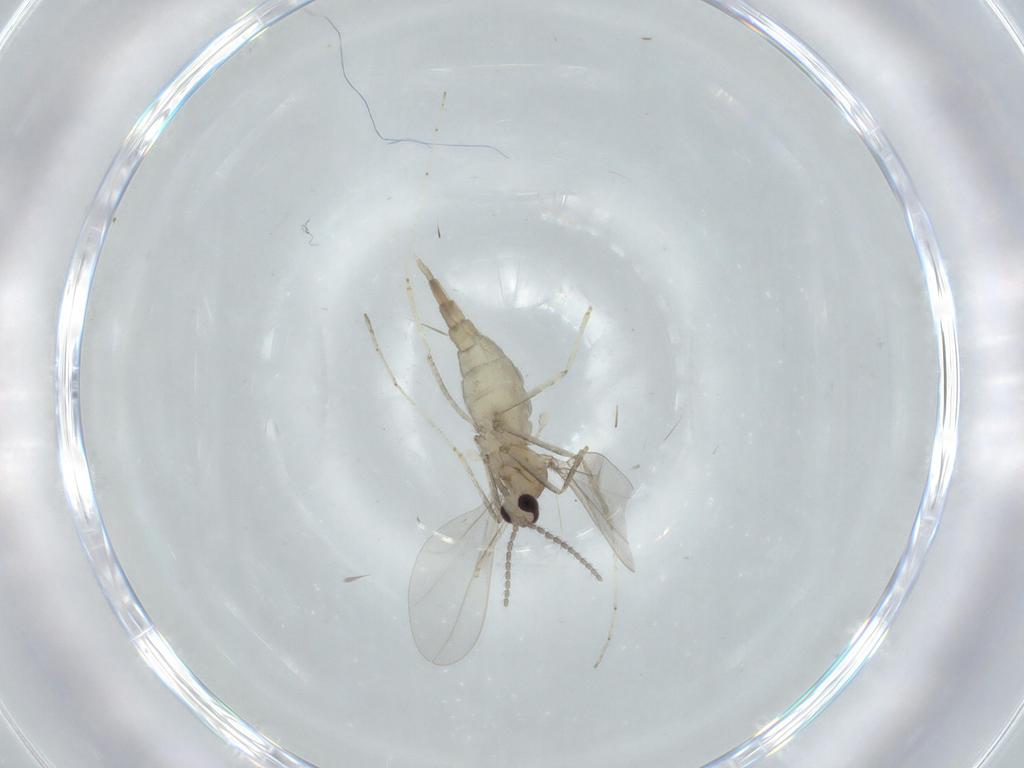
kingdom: Animalia
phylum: Arthropoda
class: Insecta
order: Diptera
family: Cecidomyiidae
